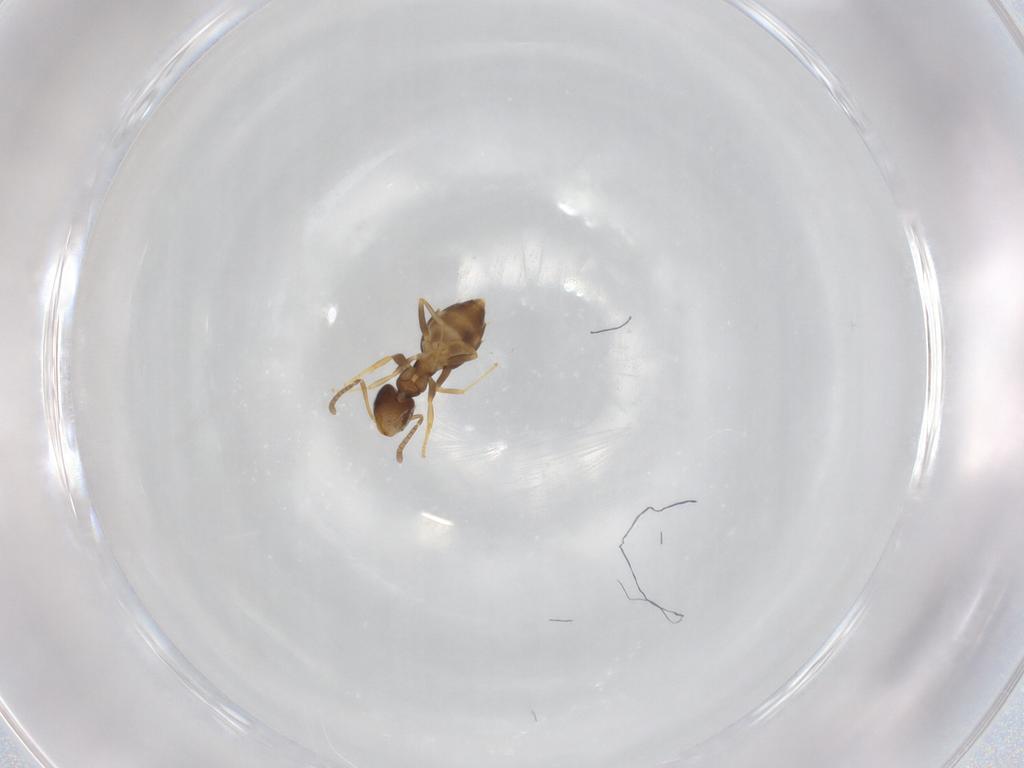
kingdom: Animalia
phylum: Arthropoda
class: Insecta
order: Hymenoptera
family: Formicidae
